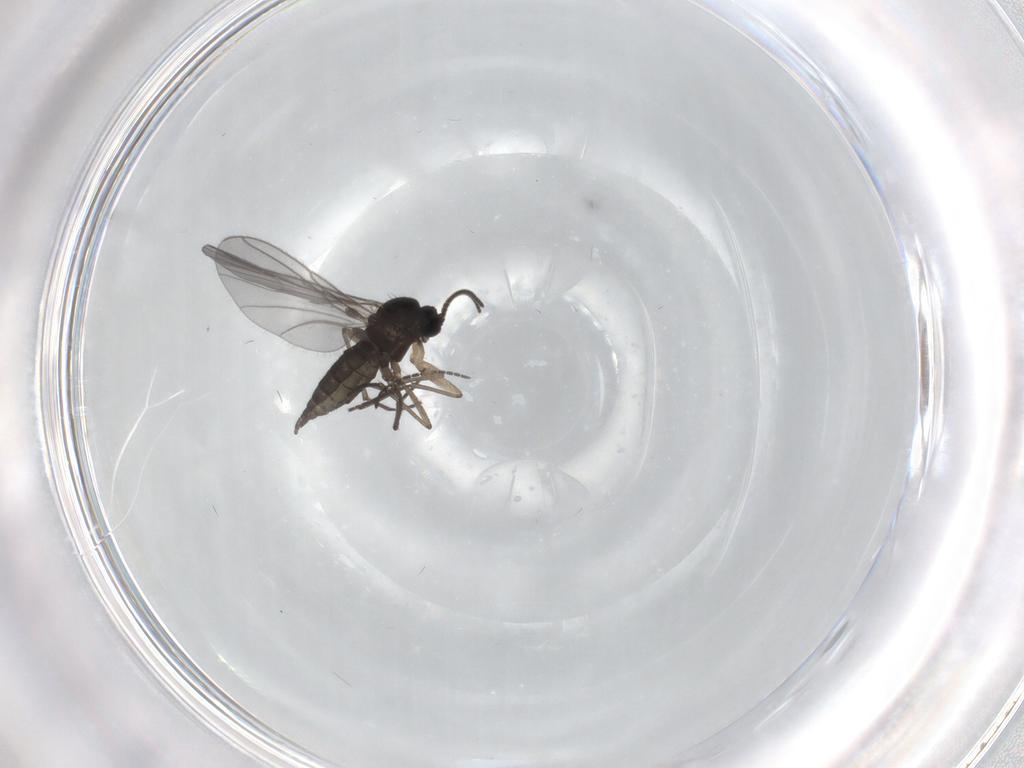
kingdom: Animalia
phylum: Arthropoda
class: Insecta
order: Diptera
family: Sciaridae
